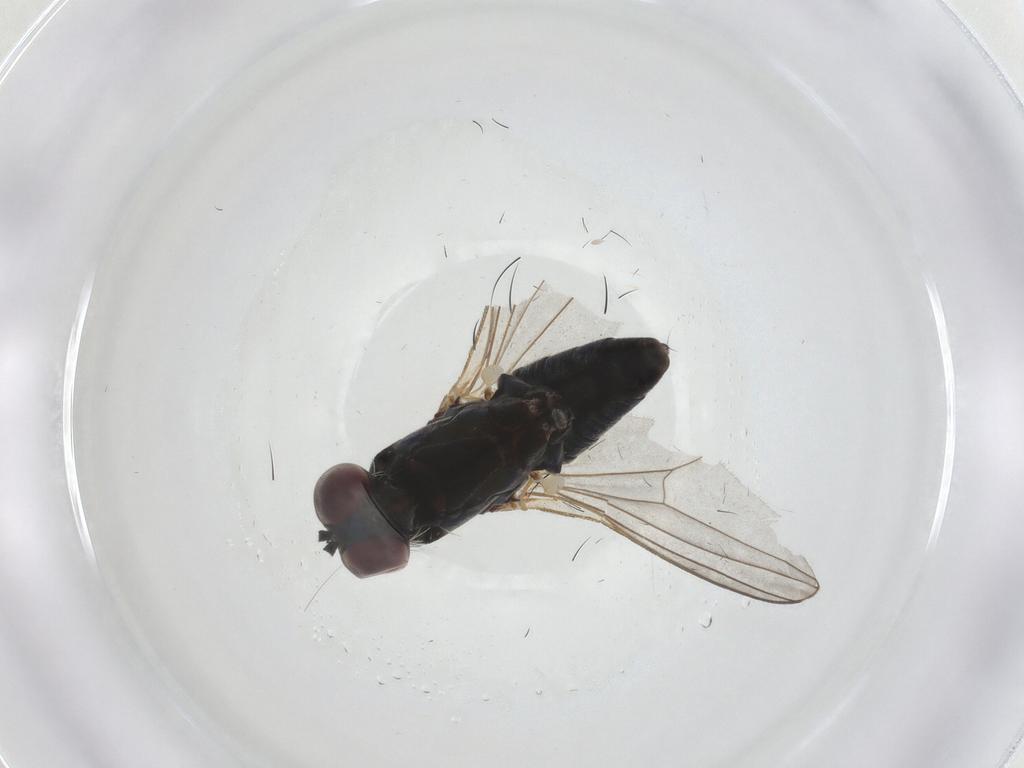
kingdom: Animalia
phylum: Arthropoda
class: Insecta
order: Diptera
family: Dolichopodidae
